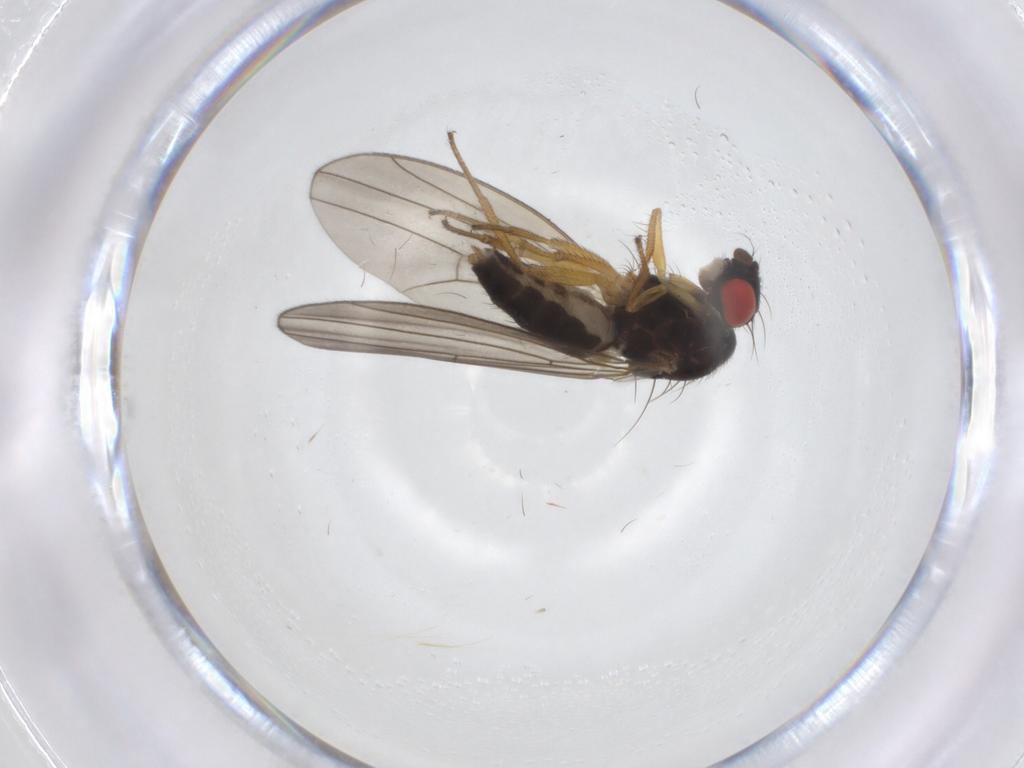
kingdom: Animalia
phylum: Arthropoda
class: Insecta
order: Diptera
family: Drosophilidae
